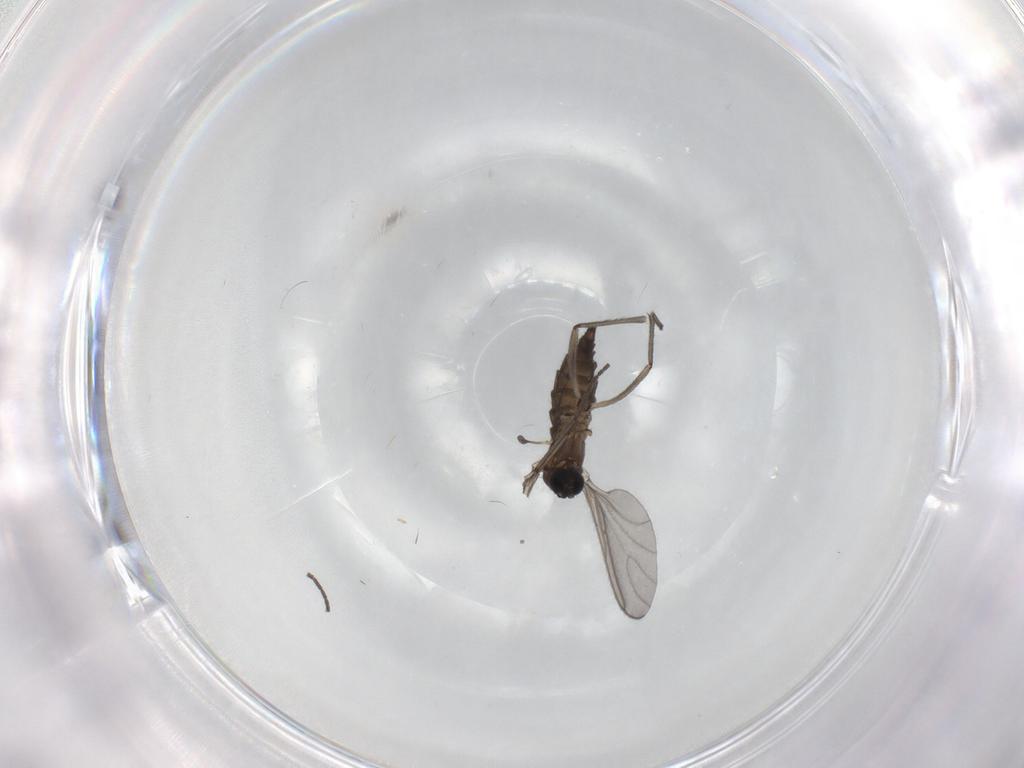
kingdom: Animalia
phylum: Arthropoda
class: Insecta
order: Diptera
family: Sciaridae
